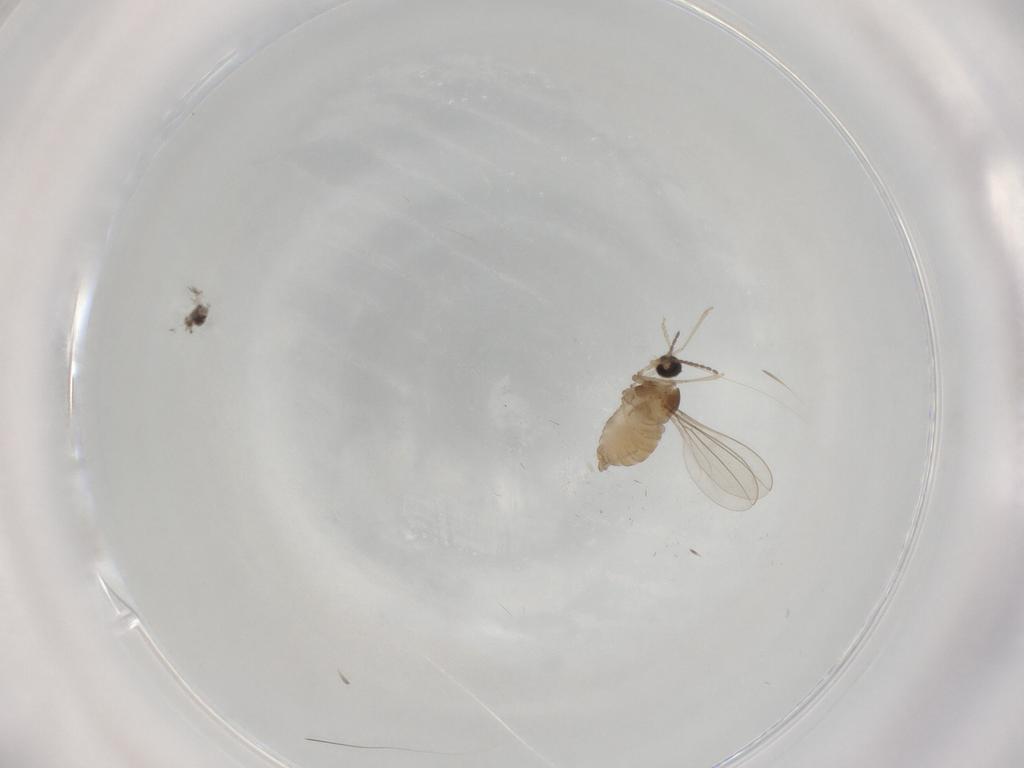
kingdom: Animalia
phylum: Arthropoda
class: Insecta
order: Diptera
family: Cecidomyiidae
